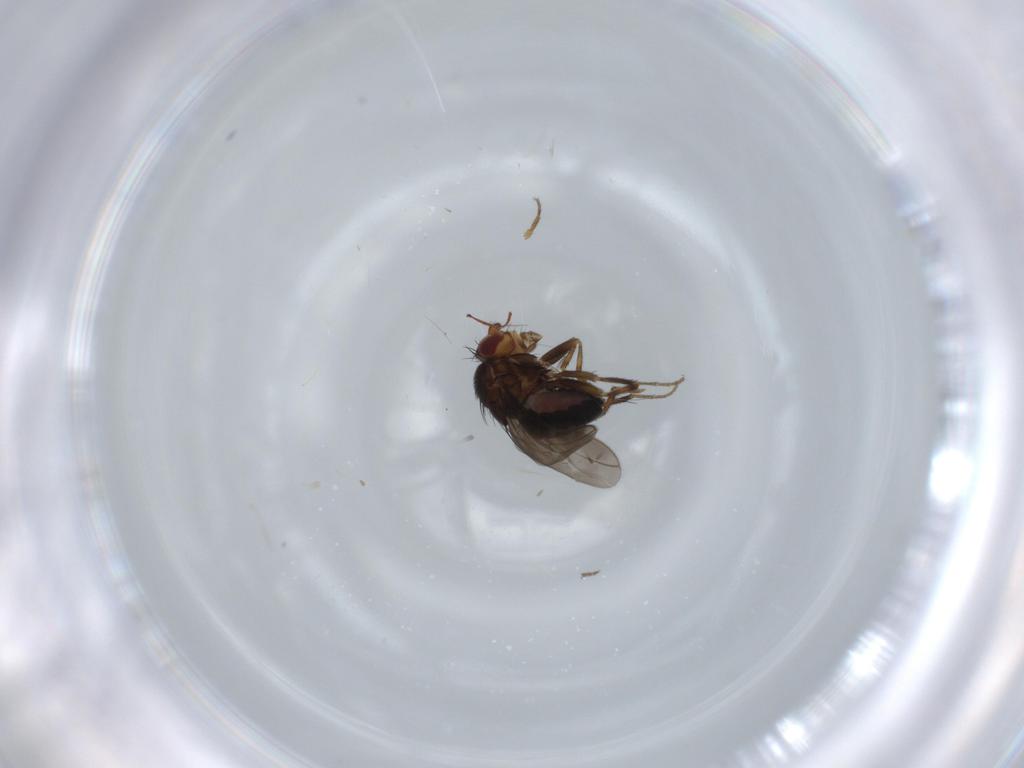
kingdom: Animalia
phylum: Arthropoda
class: Insecta
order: Diptera
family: Sphaeroceridae
